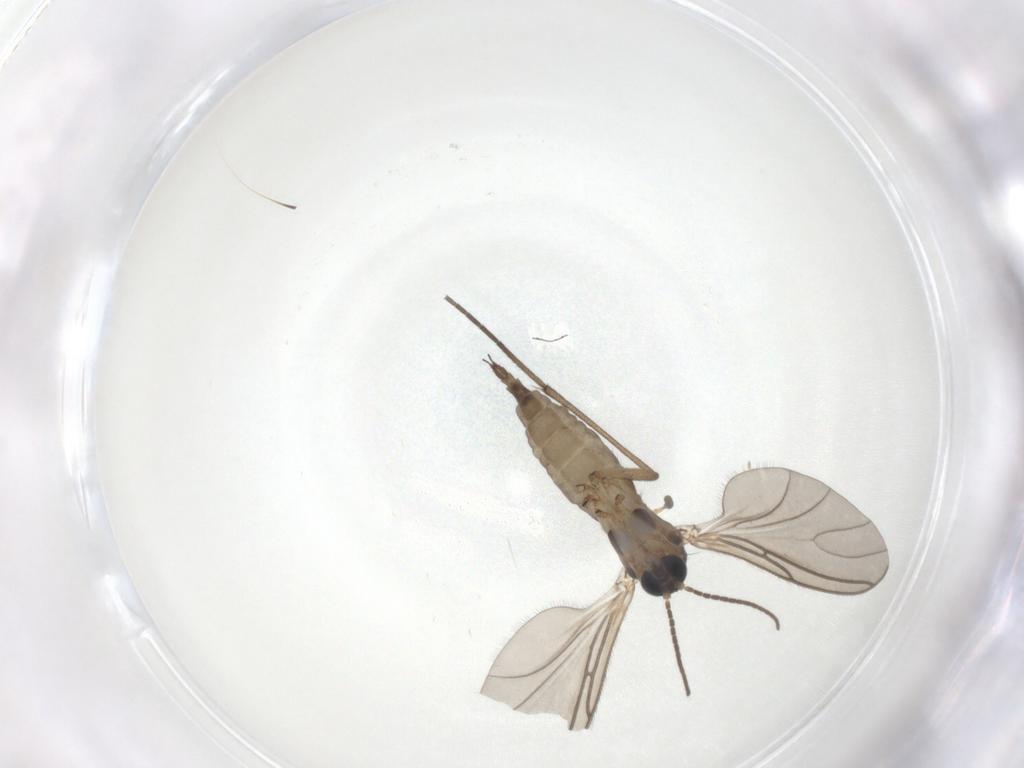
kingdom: Animalia
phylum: Arthropoda
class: Insecta
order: Diptera
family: Sciaridae
